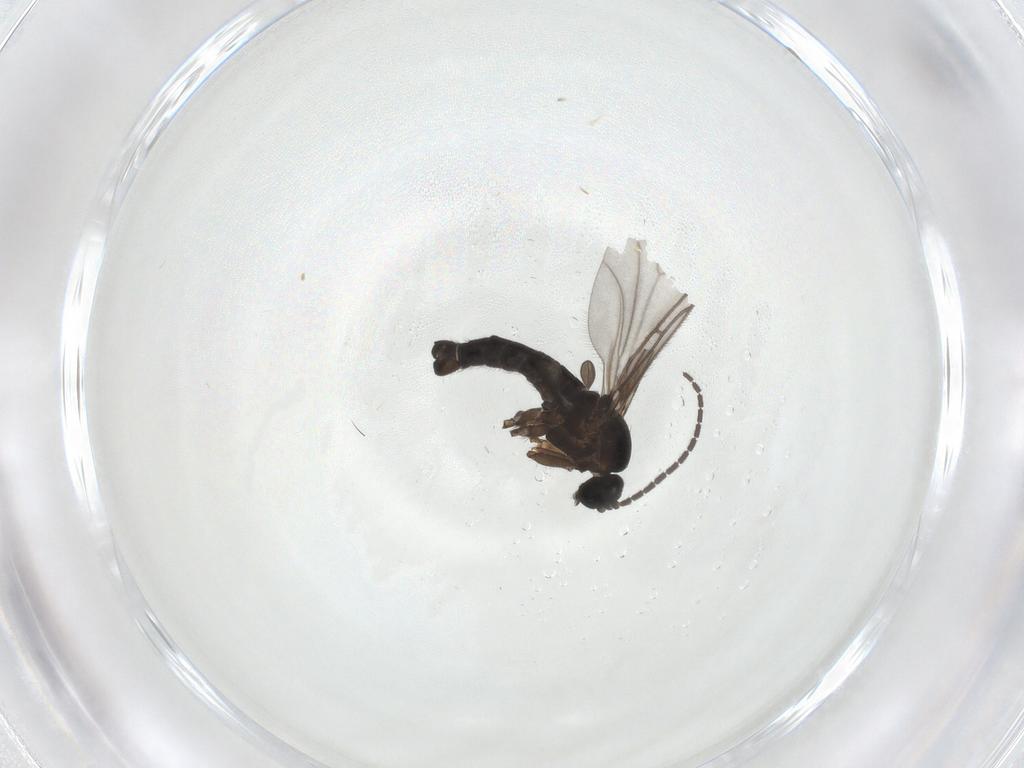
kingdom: Animalia
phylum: Arthropoda
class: Insecta
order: Diptera
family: Sciaridae
